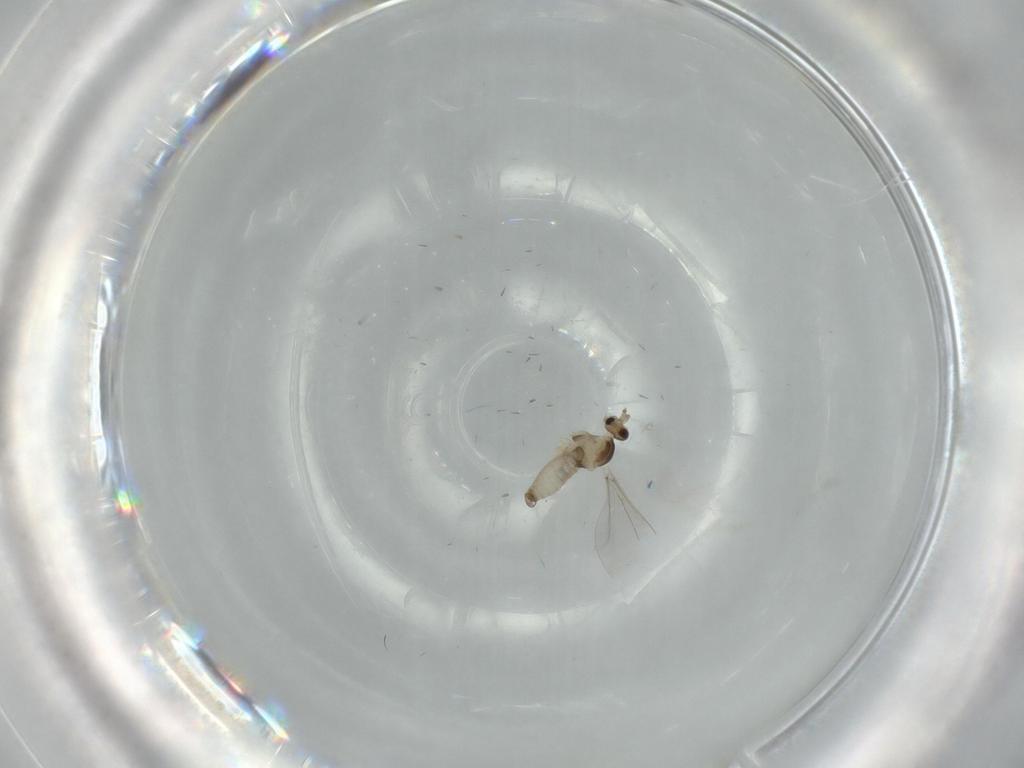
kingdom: Animalia
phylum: Arthropoda
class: Insecta
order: Diptera
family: Cecidomyiidae
